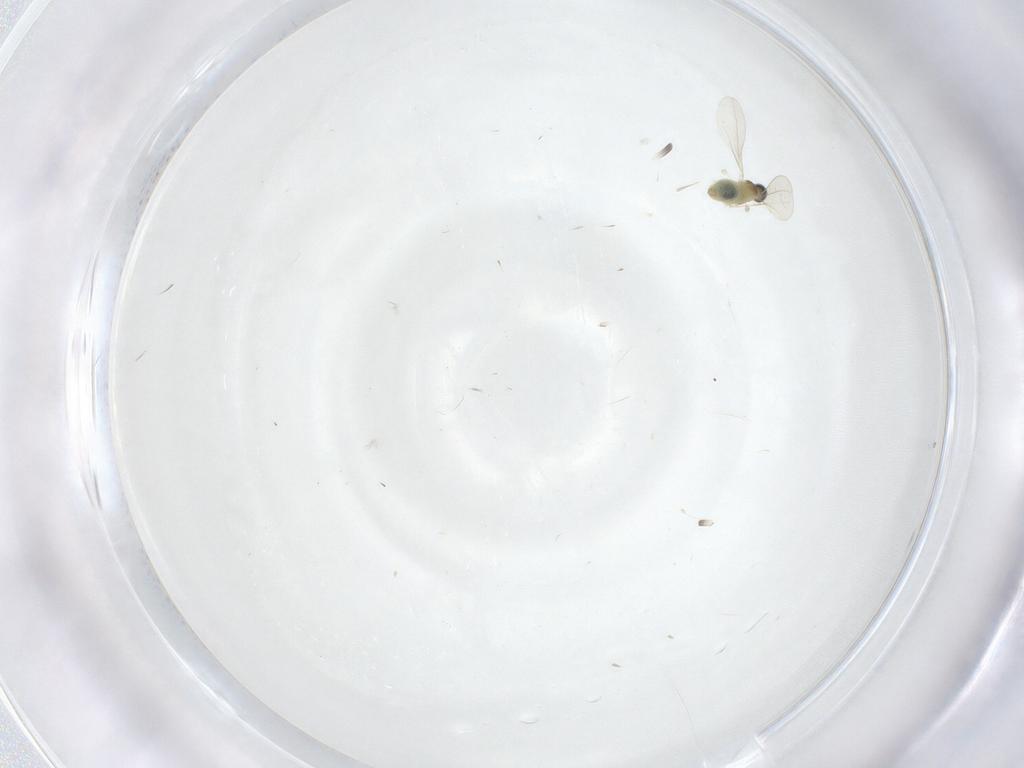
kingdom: Animalia
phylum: Arthropoda
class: Insecta
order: Diptera
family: Cecidomyiidae
